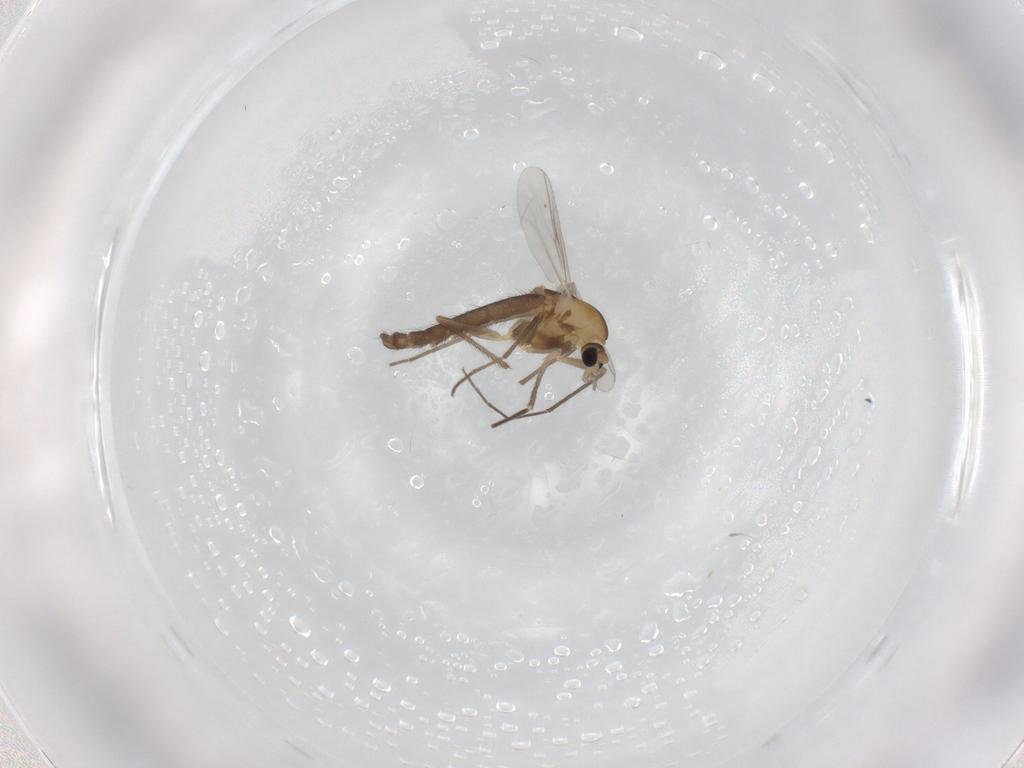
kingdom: Animalia
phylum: Arthropoda
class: Insecta
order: Diptera
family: Chironomidae
